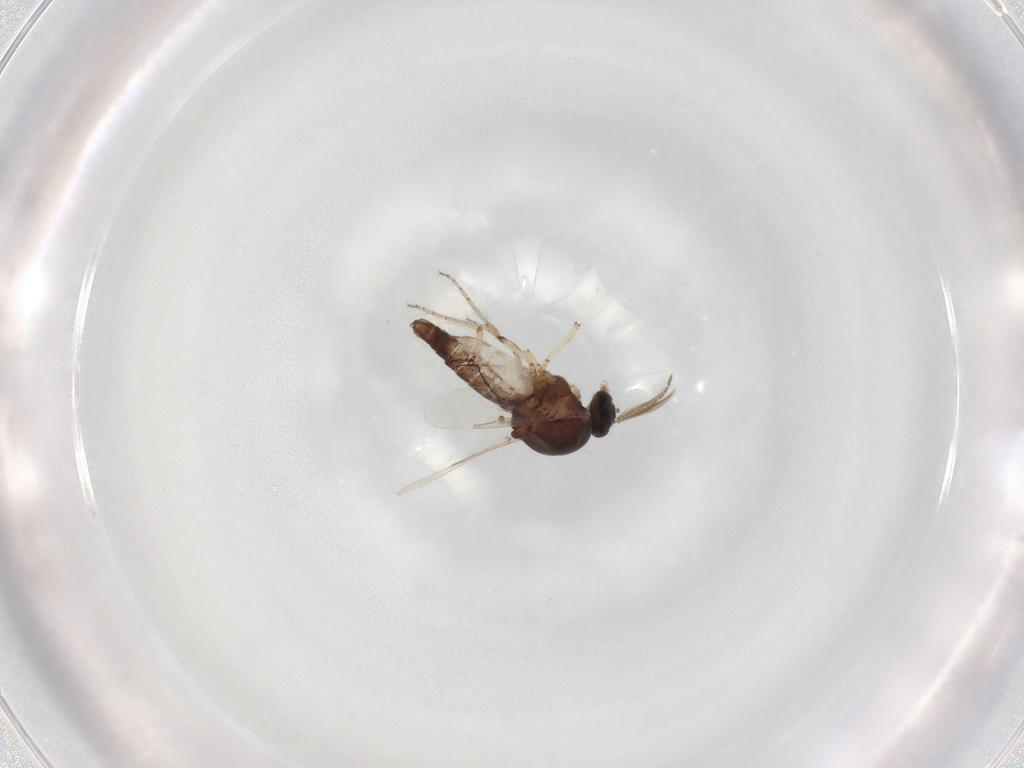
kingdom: Animalia
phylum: Arthropoda
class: Insecta
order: Diptera
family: Ceratopogonidae
